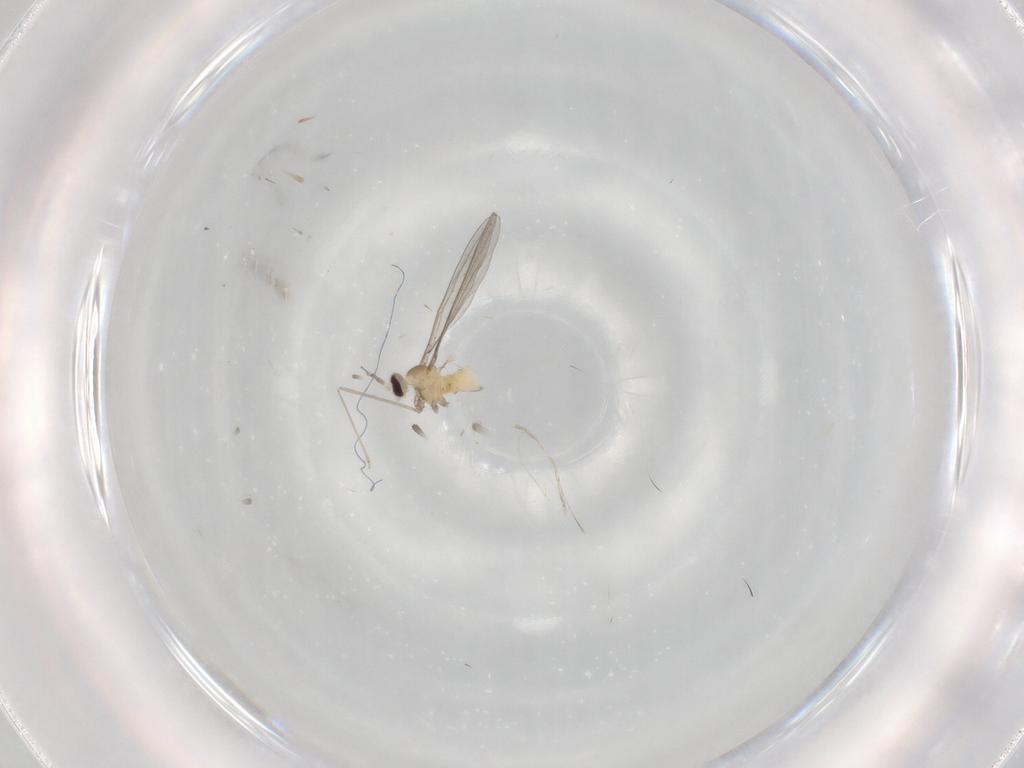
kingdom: Animalia
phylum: Arthropoda
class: Insecta
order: Diptera
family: Cecidomyiidae
